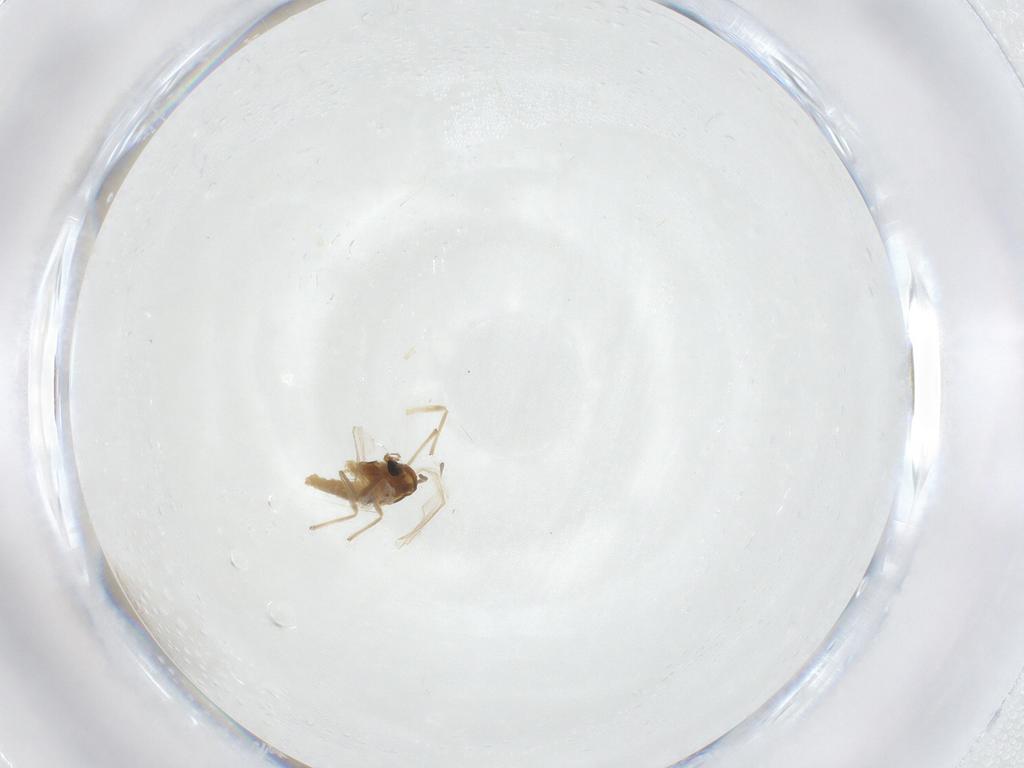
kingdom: Animalia
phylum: Arthropoda
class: Insecta
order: Diptera
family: Chironomidae
